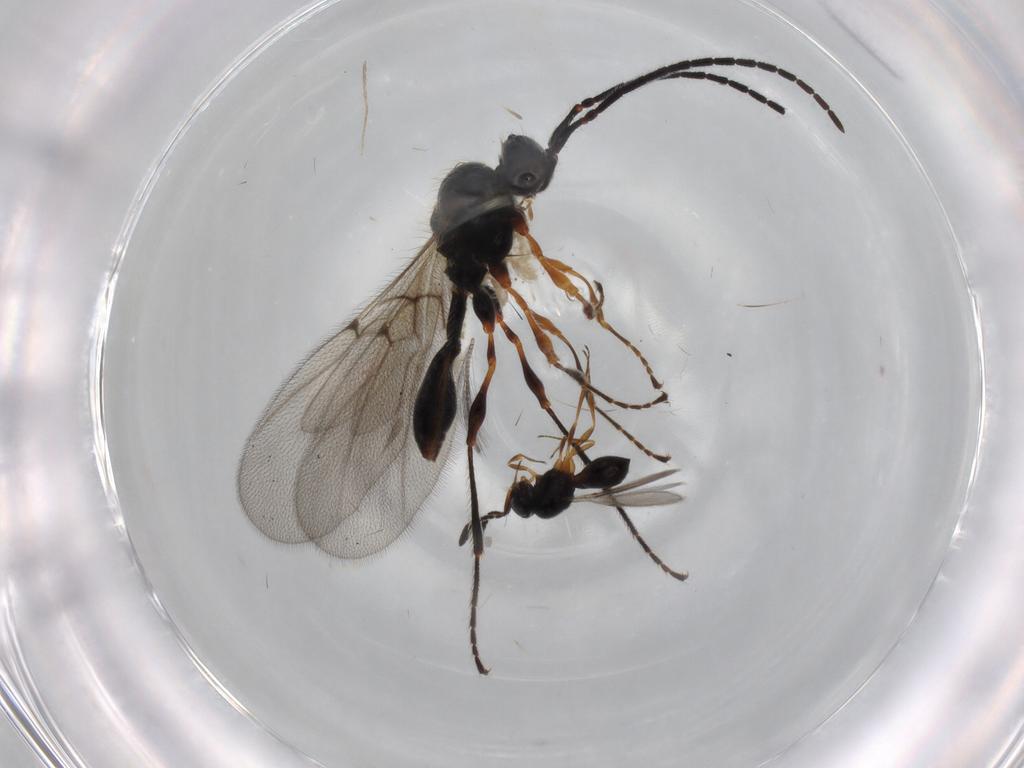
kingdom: Animalia
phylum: Arthropoda
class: Insecta
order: Hymenoptera
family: Diapriidae
